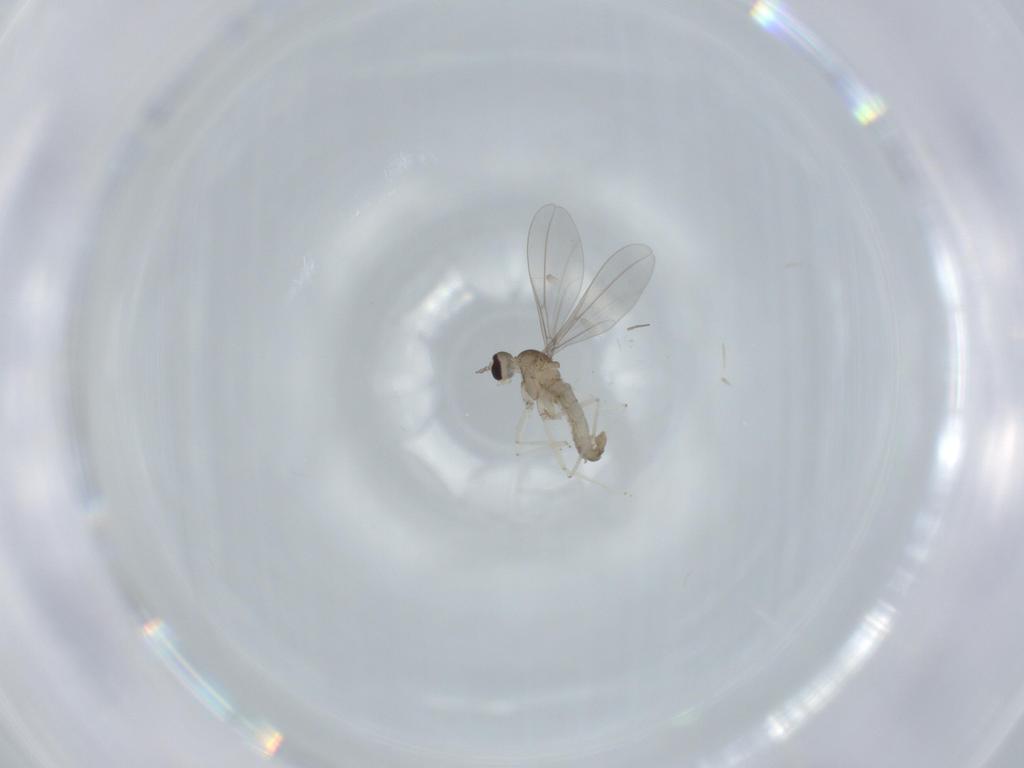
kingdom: Animalia
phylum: Arthropoda
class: Insecta
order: Diptera
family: Cecidomyiidae
